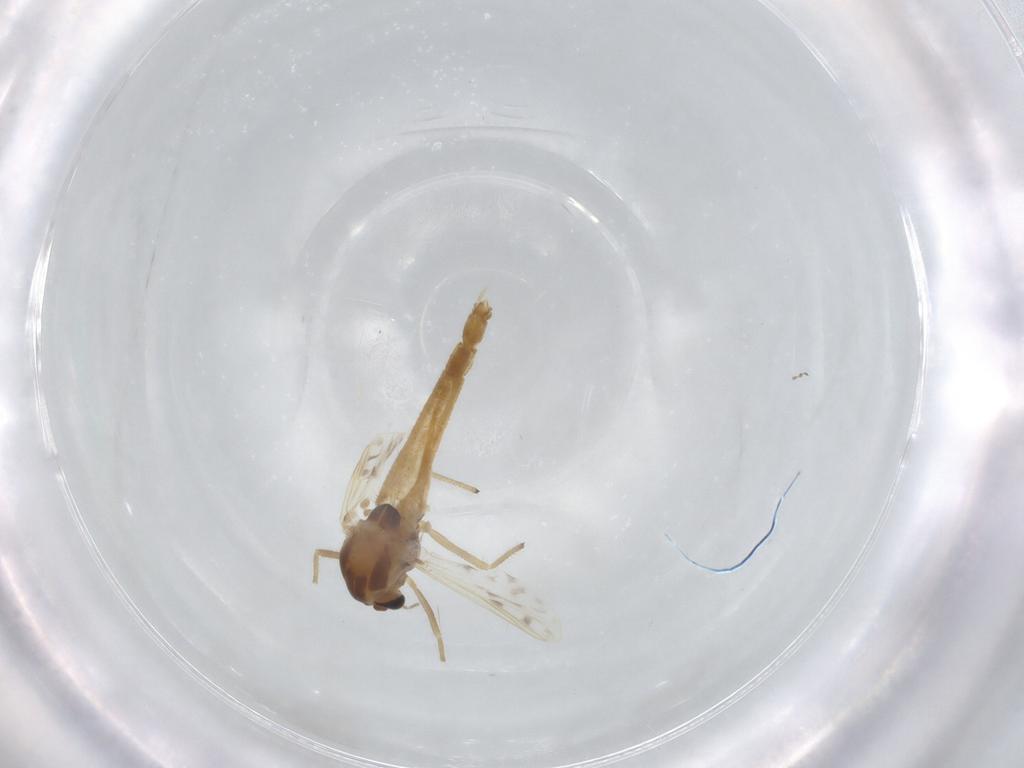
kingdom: Animalia
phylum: Arthropoda
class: Insecta
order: Diptera
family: Chironomidae
